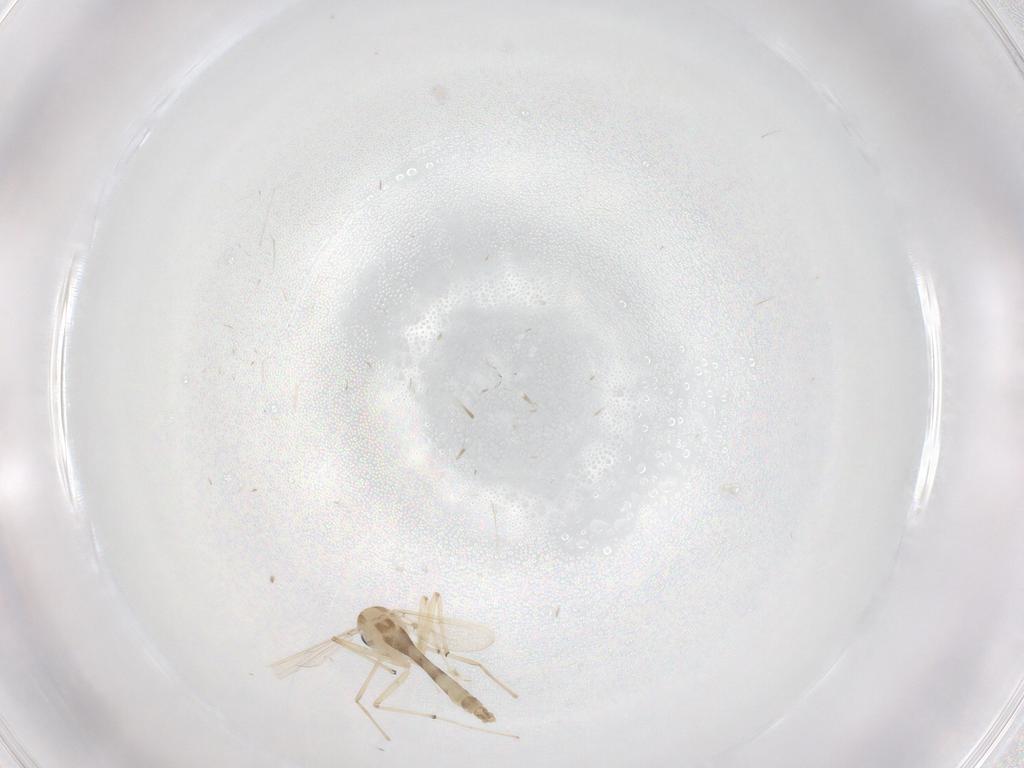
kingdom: Animalia
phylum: Arthropoda
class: Insecta
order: Diptera
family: Chironomidae
